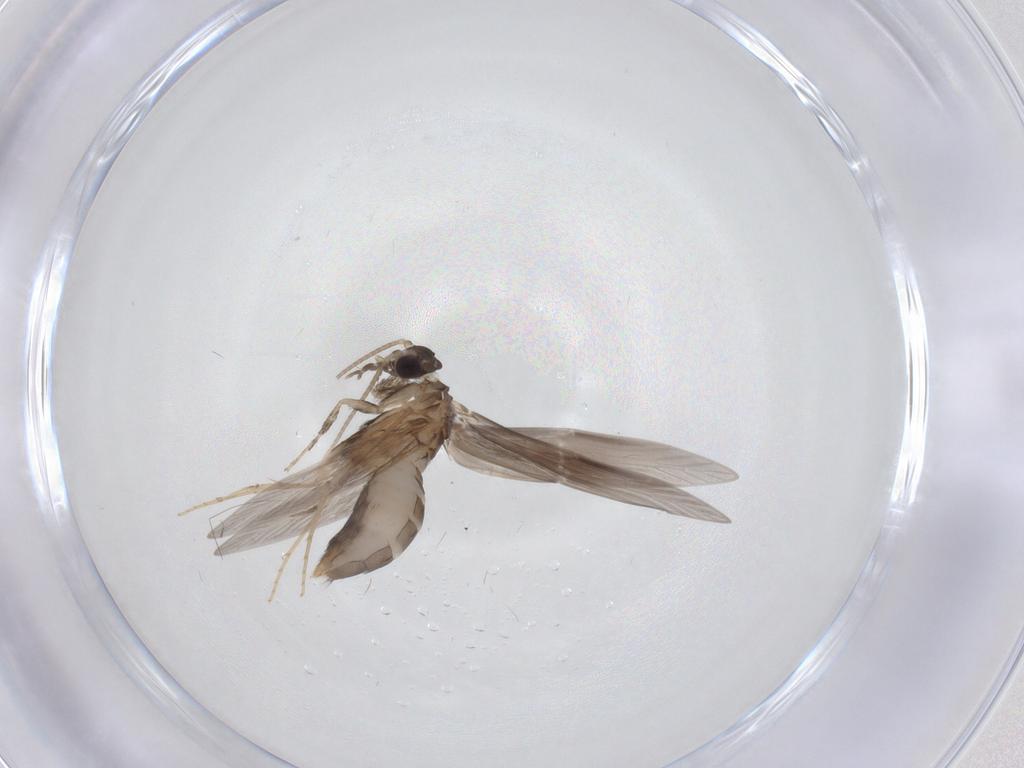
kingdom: Animalia
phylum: Arthropoda
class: Insecta
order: Trichoptera
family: Hydroptilidae
